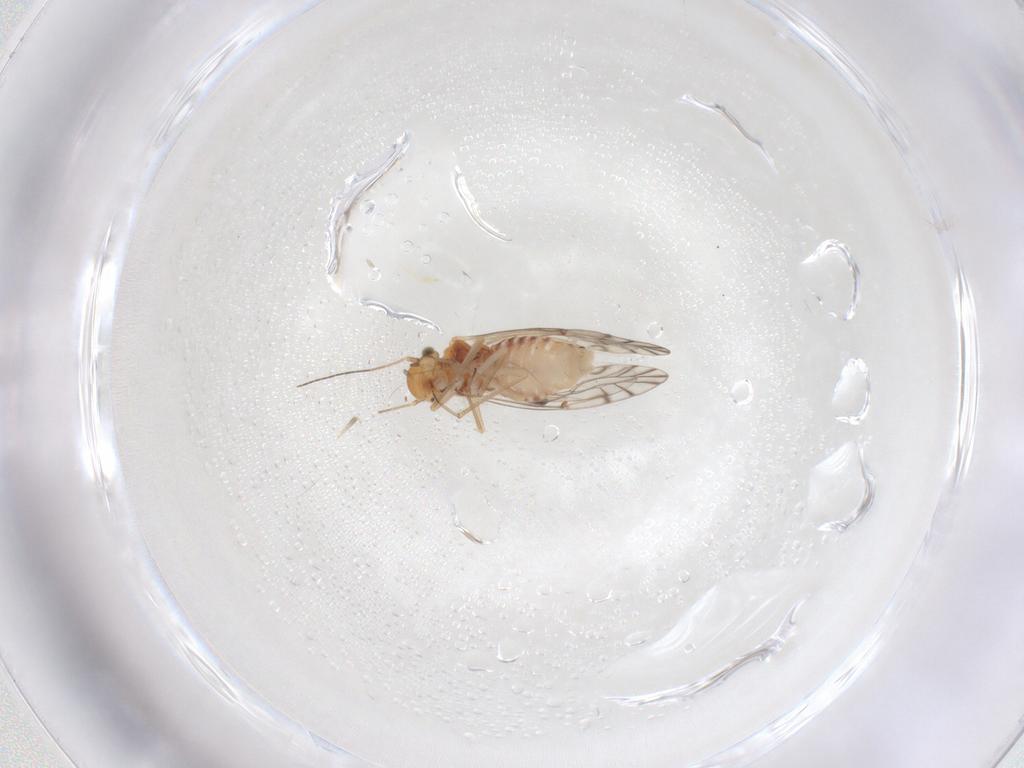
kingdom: Animalia
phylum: Arthropoda
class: Insecta
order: Psocodea
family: Lachesillidae
